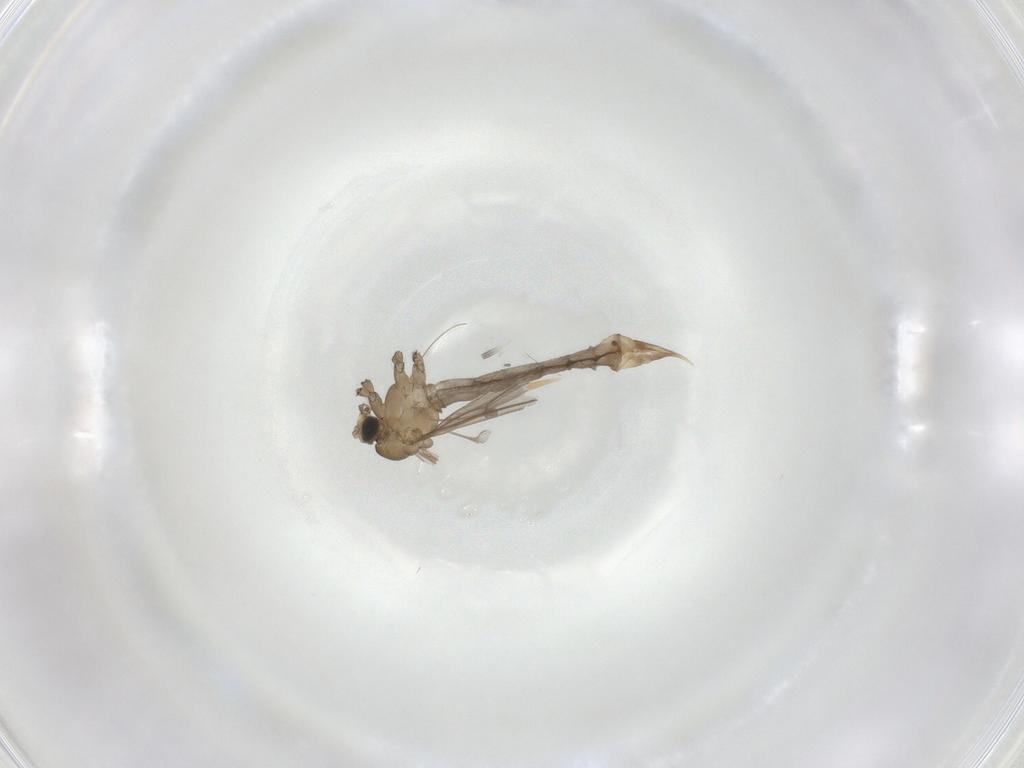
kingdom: Animalia
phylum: Arthropoda
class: Insecta
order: Diptera
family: Limoniidae
